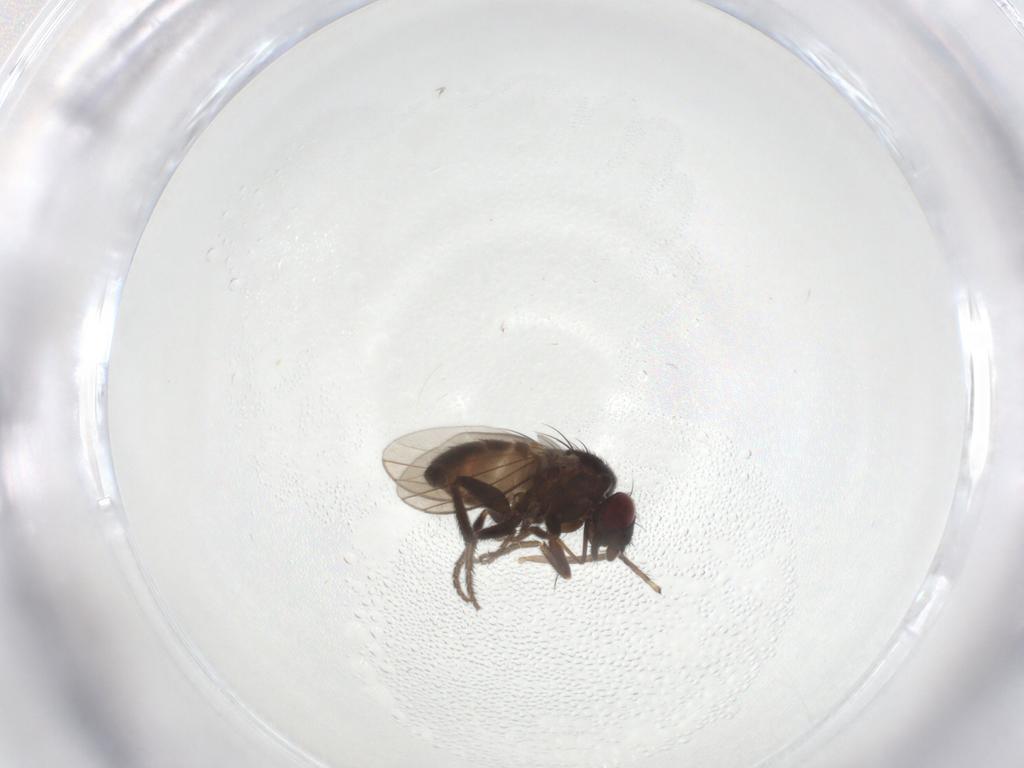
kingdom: Animalia
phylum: Arthropoda
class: Insecta
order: Diptera
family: Milichiidae
